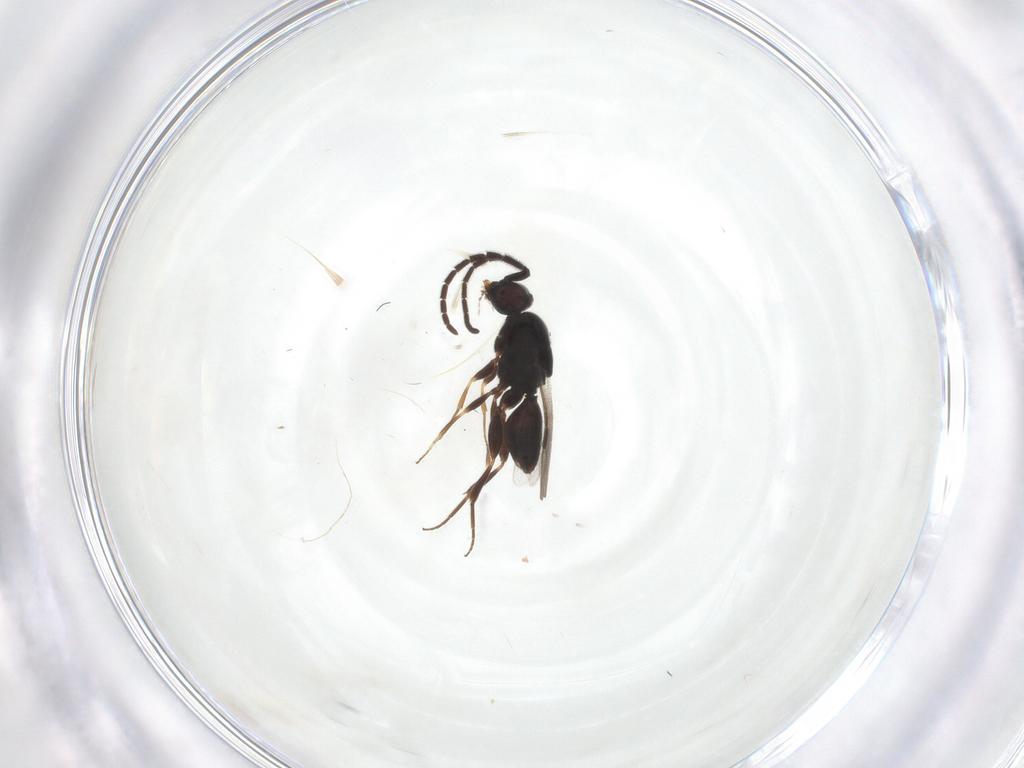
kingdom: Animalia
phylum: Arthropoda
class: Insecta
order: Hymenoptera
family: Megaspilidae
